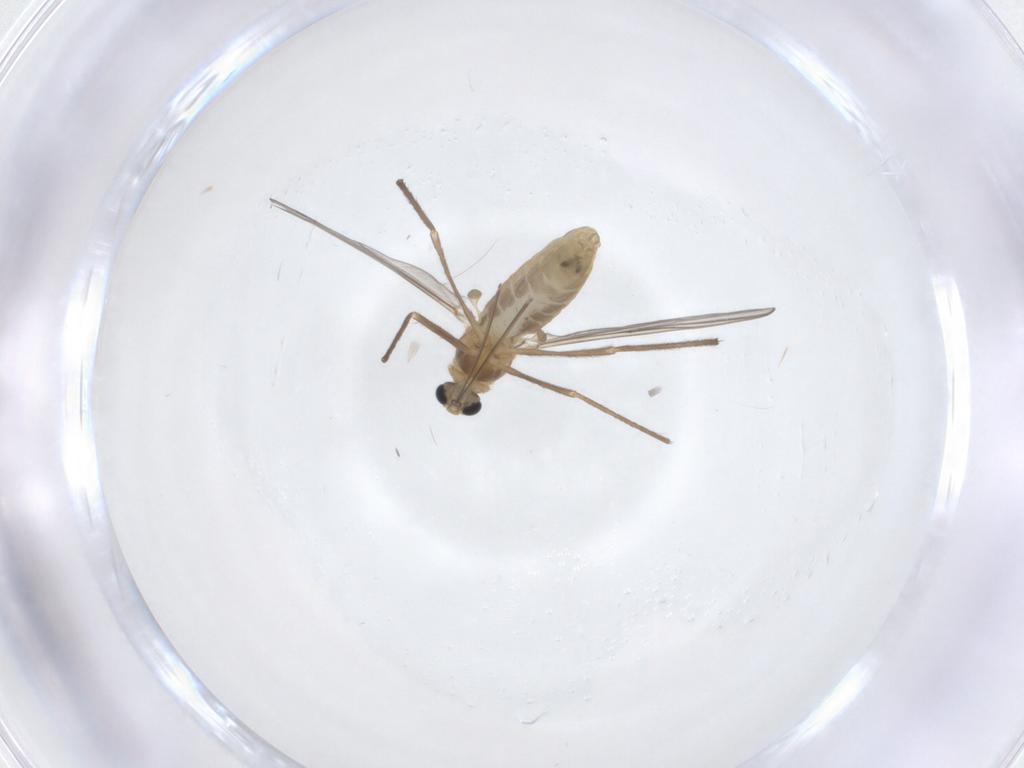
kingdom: Animalia
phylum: Arthropoda
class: Insecta
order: Diptera
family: Chironomidae
